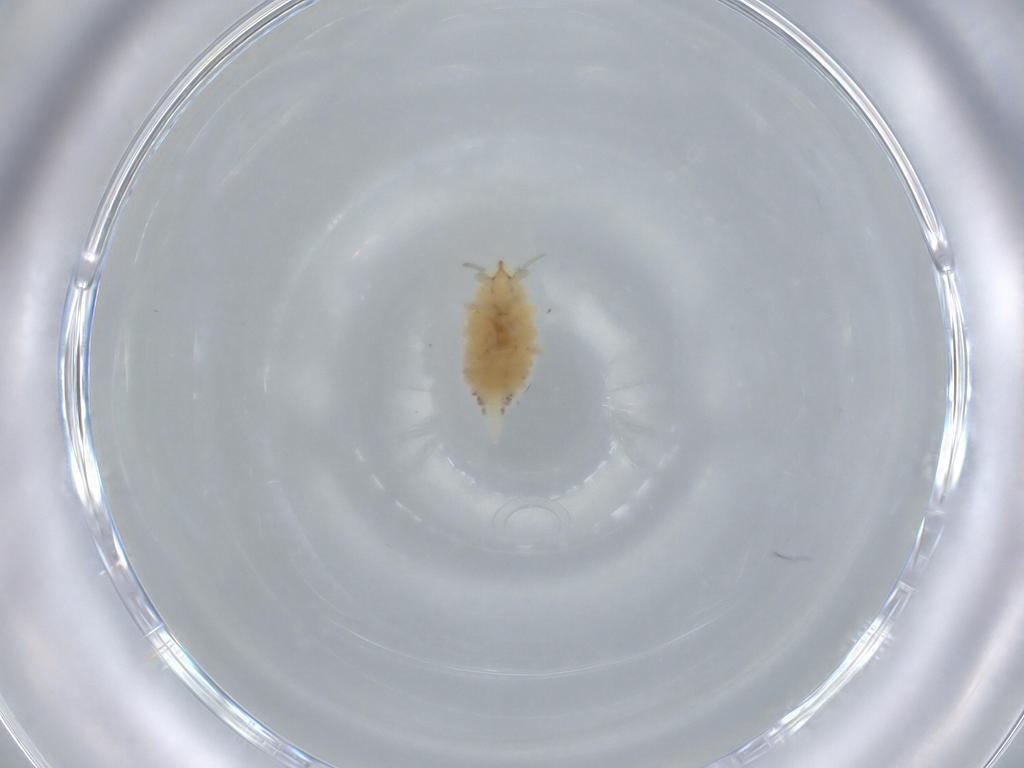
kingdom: Animalia
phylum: Arthropoda
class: Insecta
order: Neuroptera
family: Coniopterygidae
